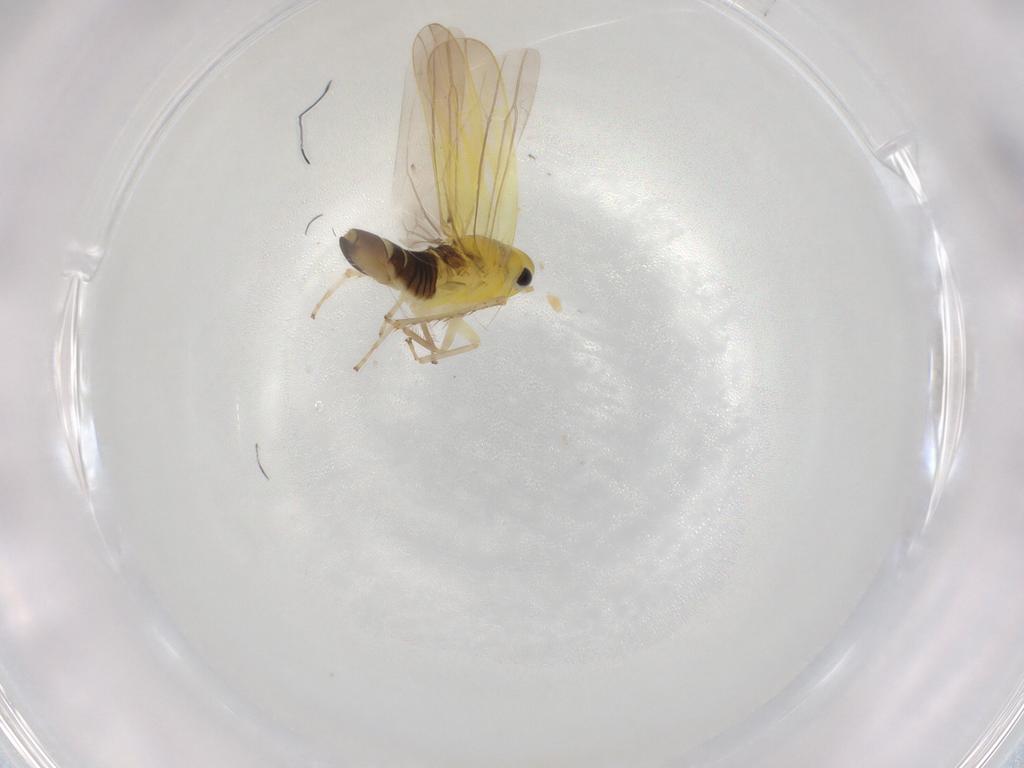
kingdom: Animalia
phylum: Arthropoda
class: Insecta
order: Diptera
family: Chironomidae
